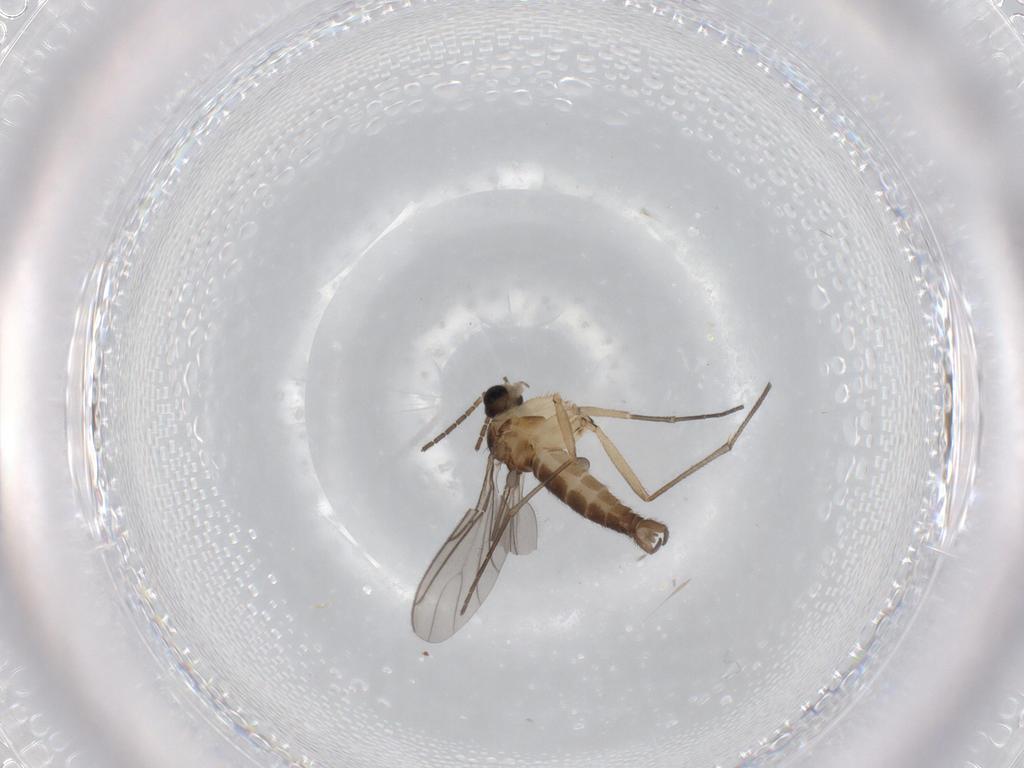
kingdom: Animalia
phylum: Arthropoda
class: Insecta
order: Diptera
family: Sciaridae
